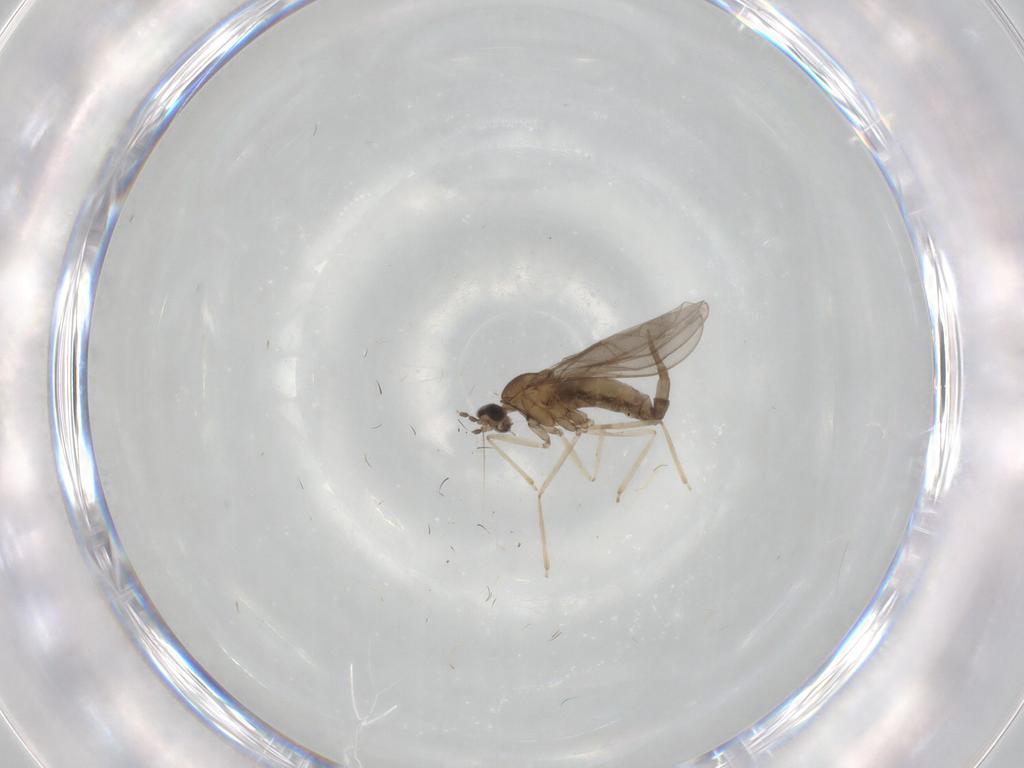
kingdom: Animalia
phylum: Arthropoda
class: Insecta
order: Diptera
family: Cecidomyiidae
